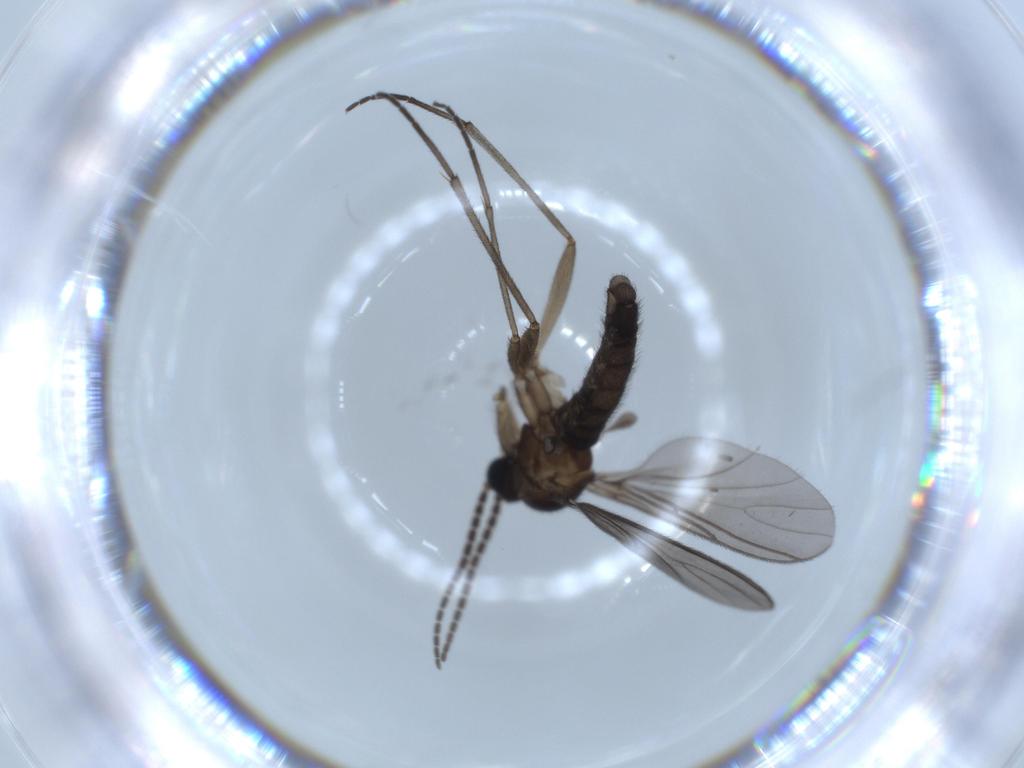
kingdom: Animalia
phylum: Arthropoda
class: Insecta
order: Diptera
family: Sciaridae
